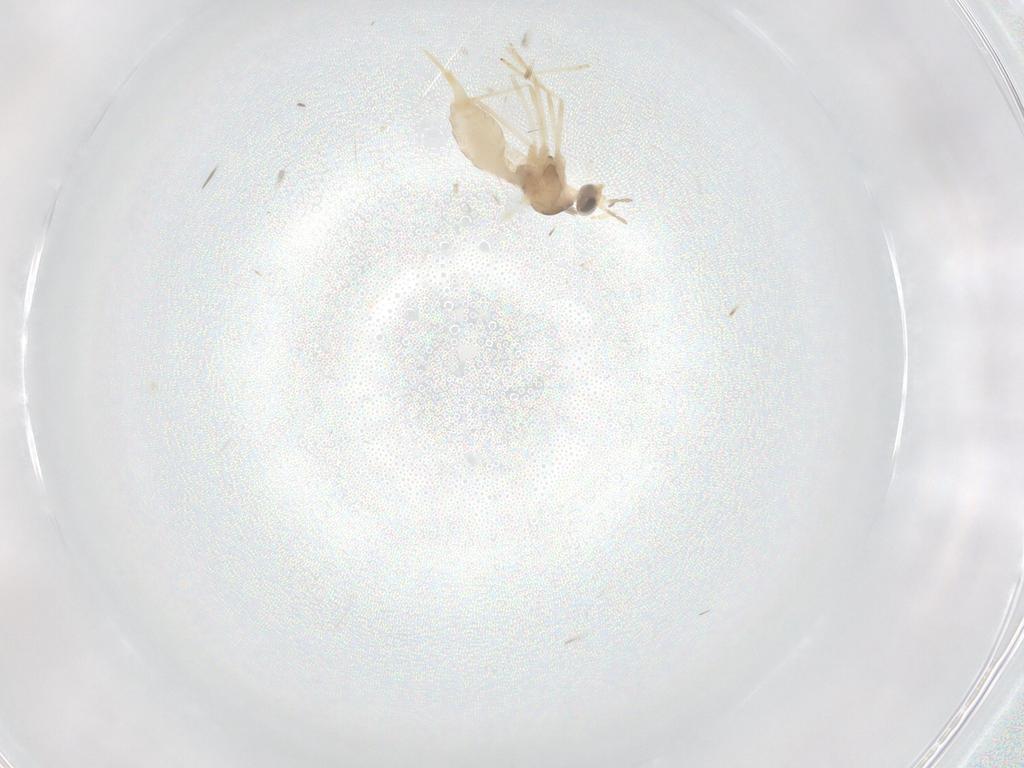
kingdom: Animalia
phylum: Arthropoda
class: Insecta
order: Diptera
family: Cecidomyiidae
